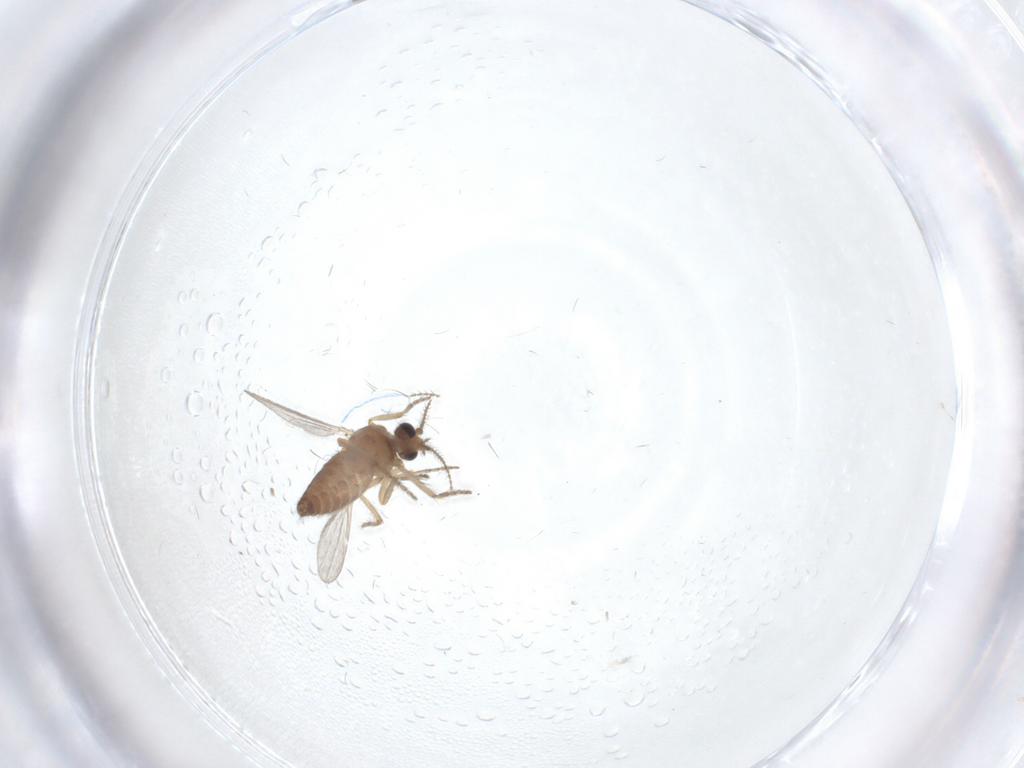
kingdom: Animalia
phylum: Arthropoda
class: Insecta
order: Diptera
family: Ceratopogonidae
